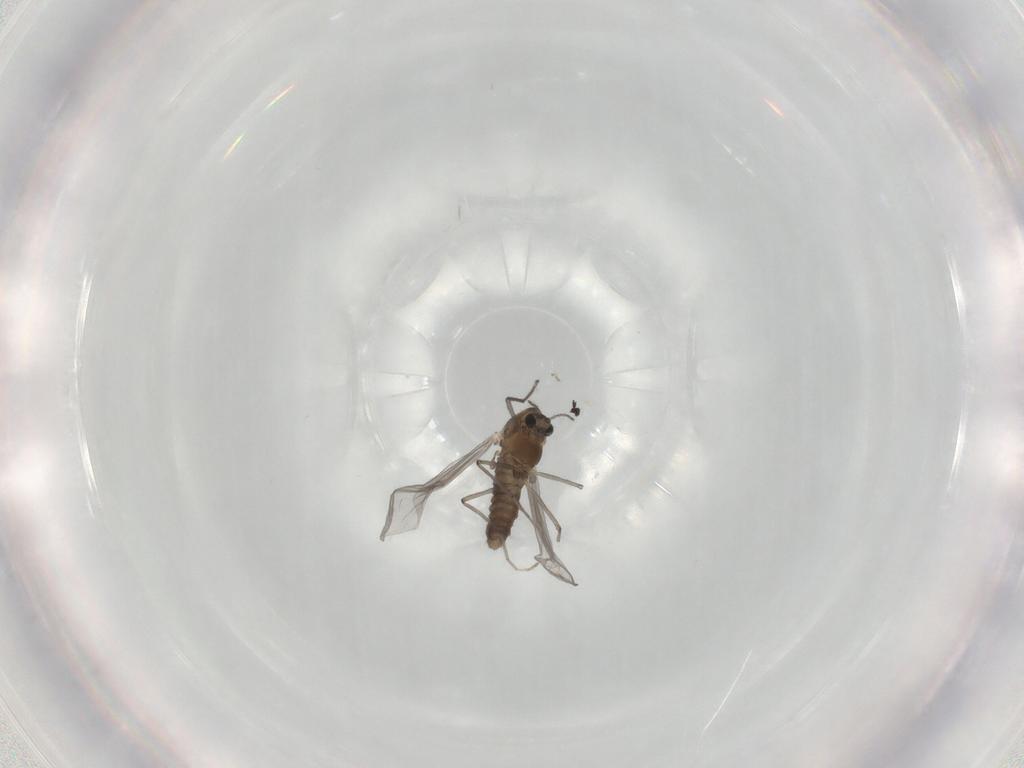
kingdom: Animalia
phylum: Arthropoda
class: Insecta
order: Diptera
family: Chironomidae
